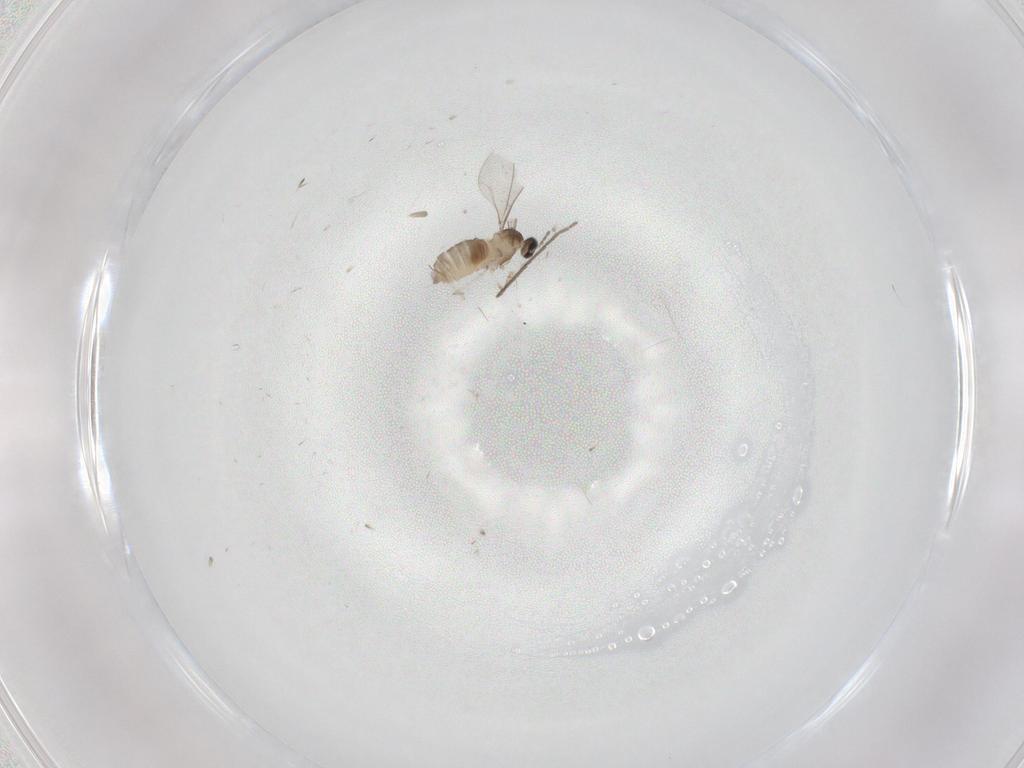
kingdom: Animalia
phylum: Arthropoda
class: Insecta
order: Diptera
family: Cecidomyiidae
